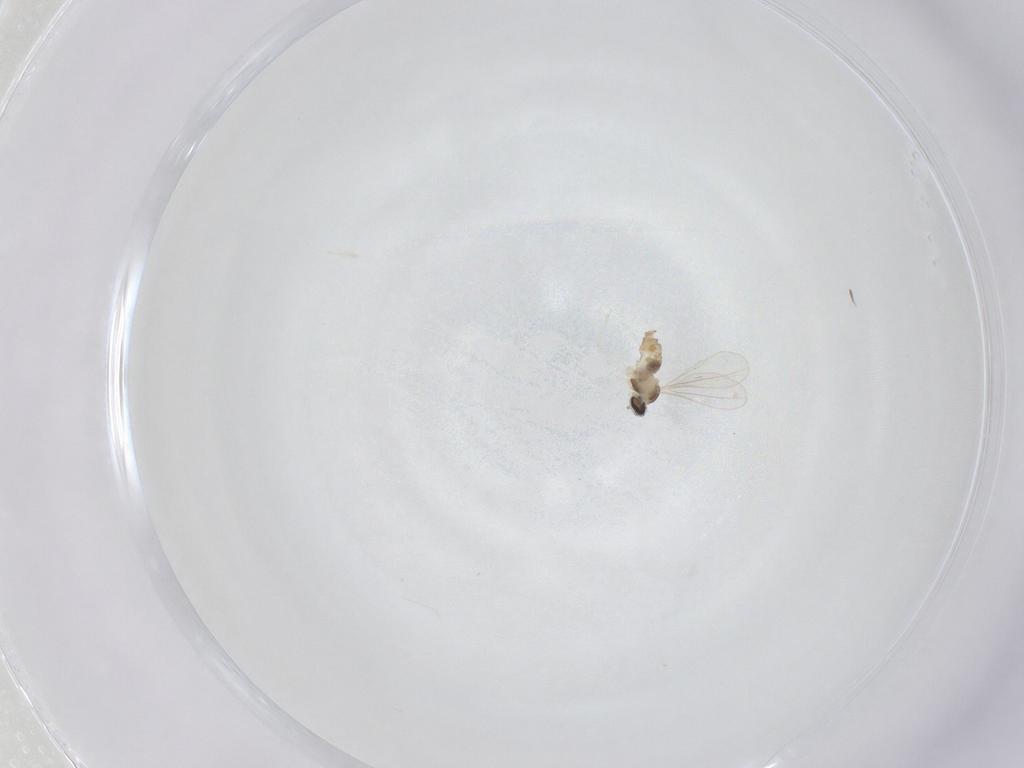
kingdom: Animalia
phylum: Arthropoda
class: Insecta
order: Diptera
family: Cecidomyiidae
